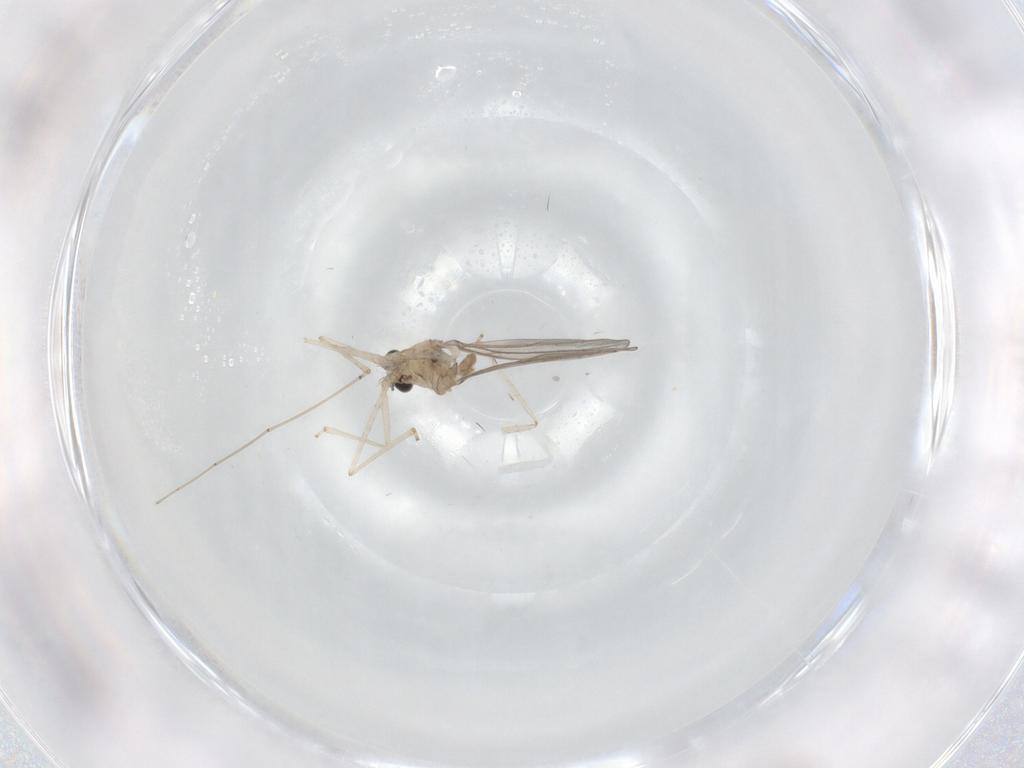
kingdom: Animalia
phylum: Arthropoda
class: Insecta
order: Diptera
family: Cecidomyiidae
